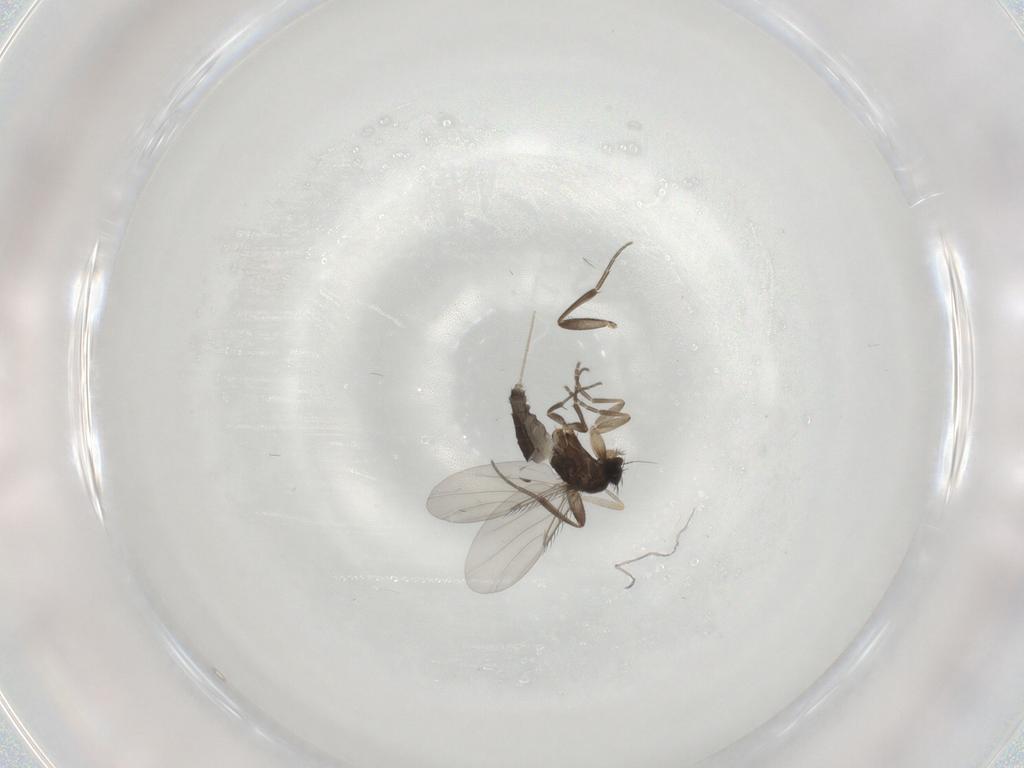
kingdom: Animalia
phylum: Arthropoda
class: Insecta
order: Diptera
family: Phoridae
